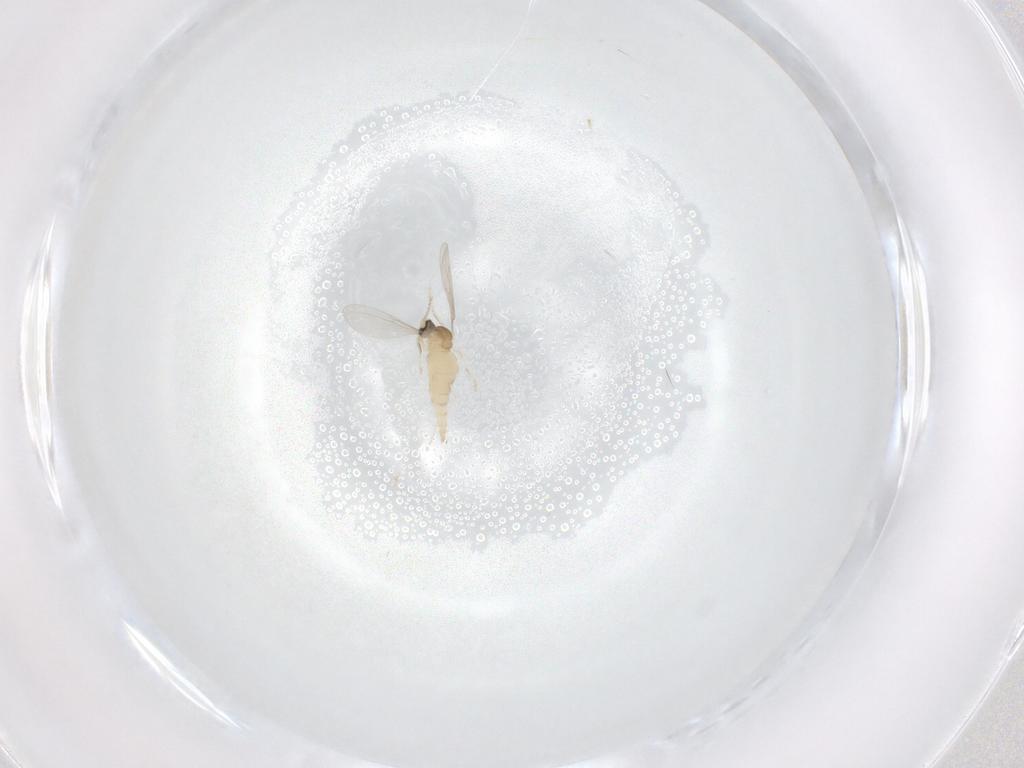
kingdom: Animalia
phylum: Arthropoda
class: Insecta
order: Diptera
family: Cecidomyiidae
